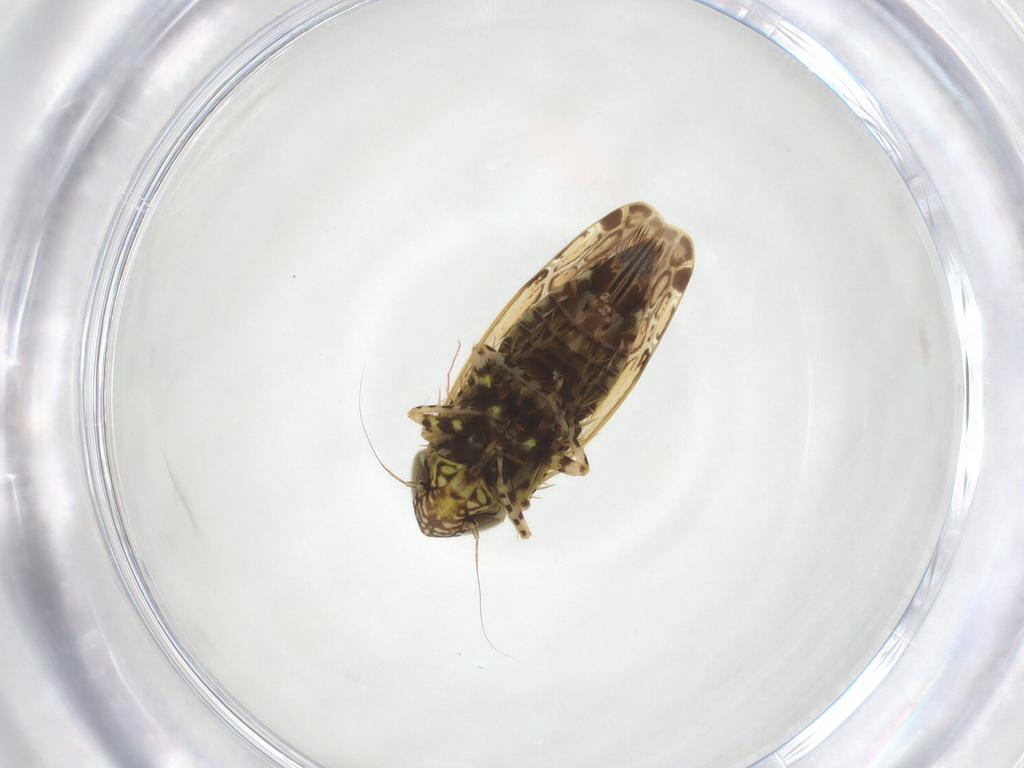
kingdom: Animalia
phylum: Arthropoda
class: Insecta
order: Hemiptera
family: Cicadellidae
